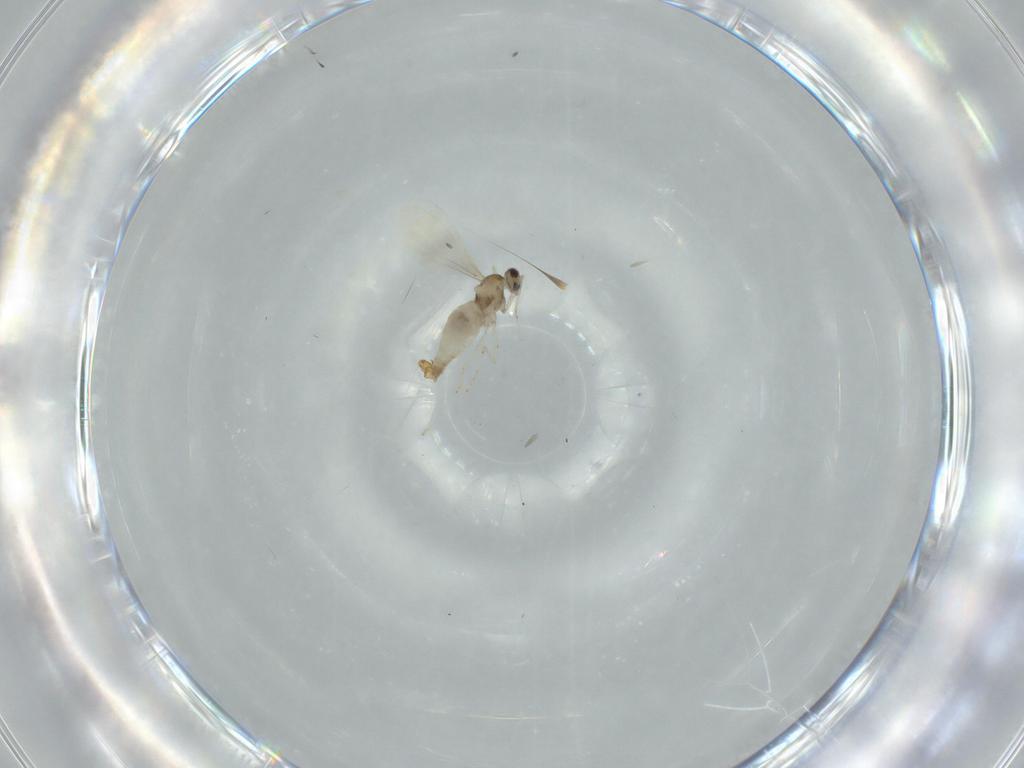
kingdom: Animalia
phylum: Arthropoda
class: Insecta
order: Diptera
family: Cecidomyiidae
